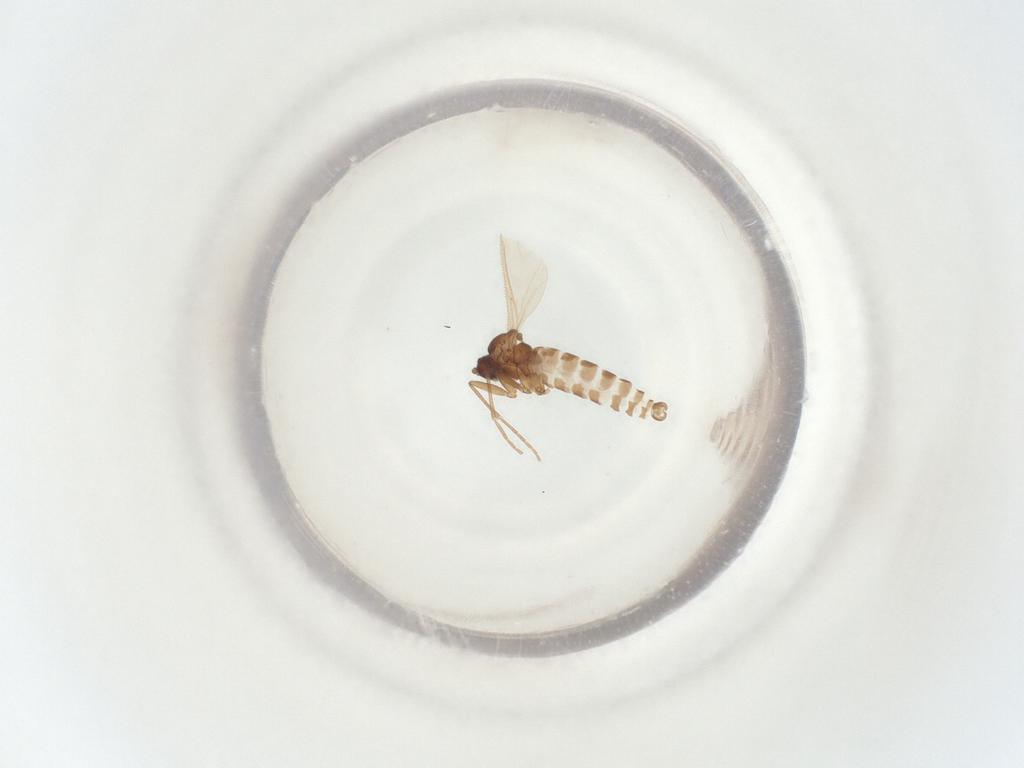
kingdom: Animalia
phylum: Arthropoda
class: Insecta
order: Diptera
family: Sciaridae
